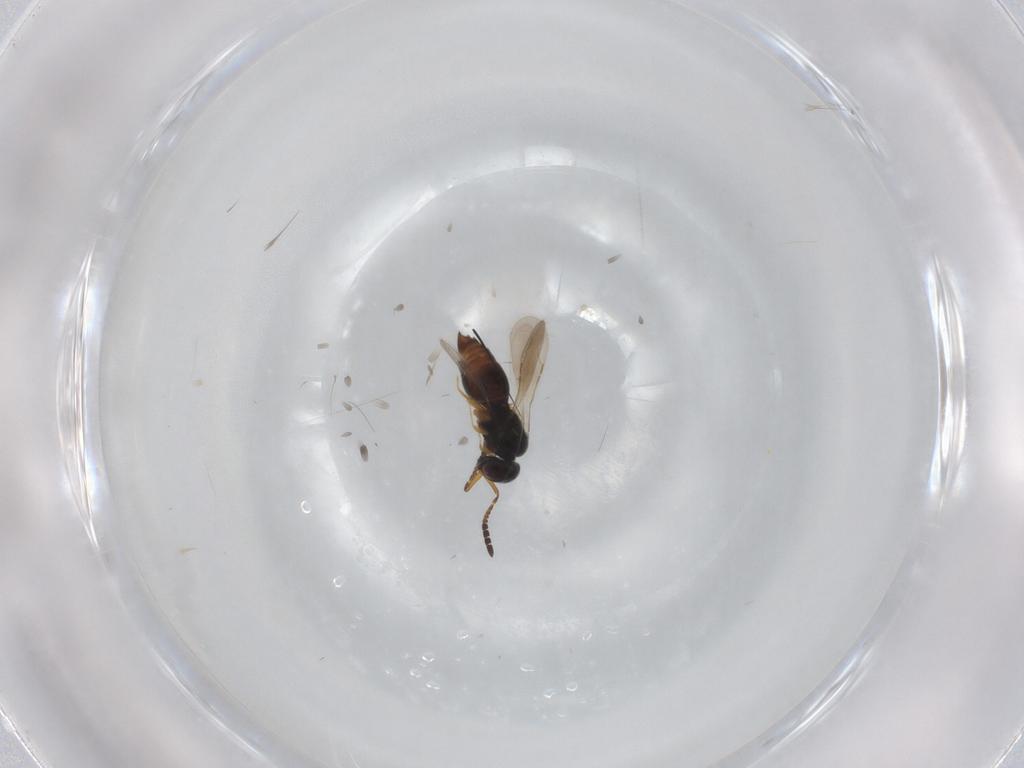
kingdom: Animalia
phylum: Arthropoda
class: Insecta
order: Hymenoptera
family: Ceraphronidae
